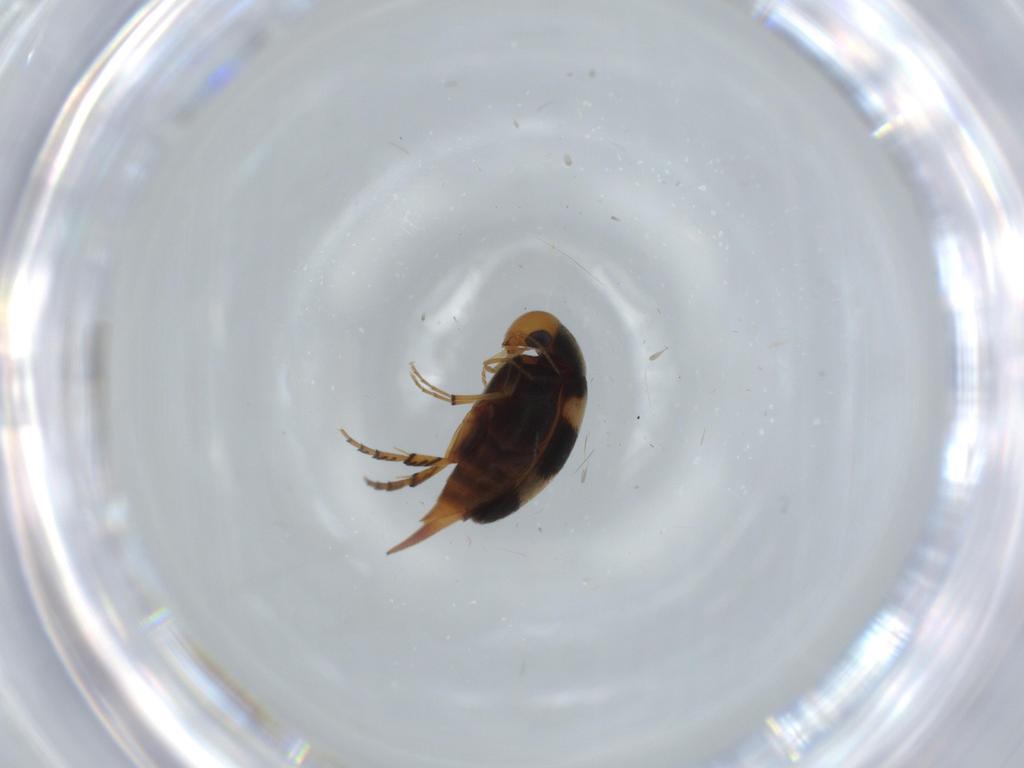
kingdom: Animalia
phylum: Arthropoda
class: Insecta
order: Coleoptera
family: Mordellidae
